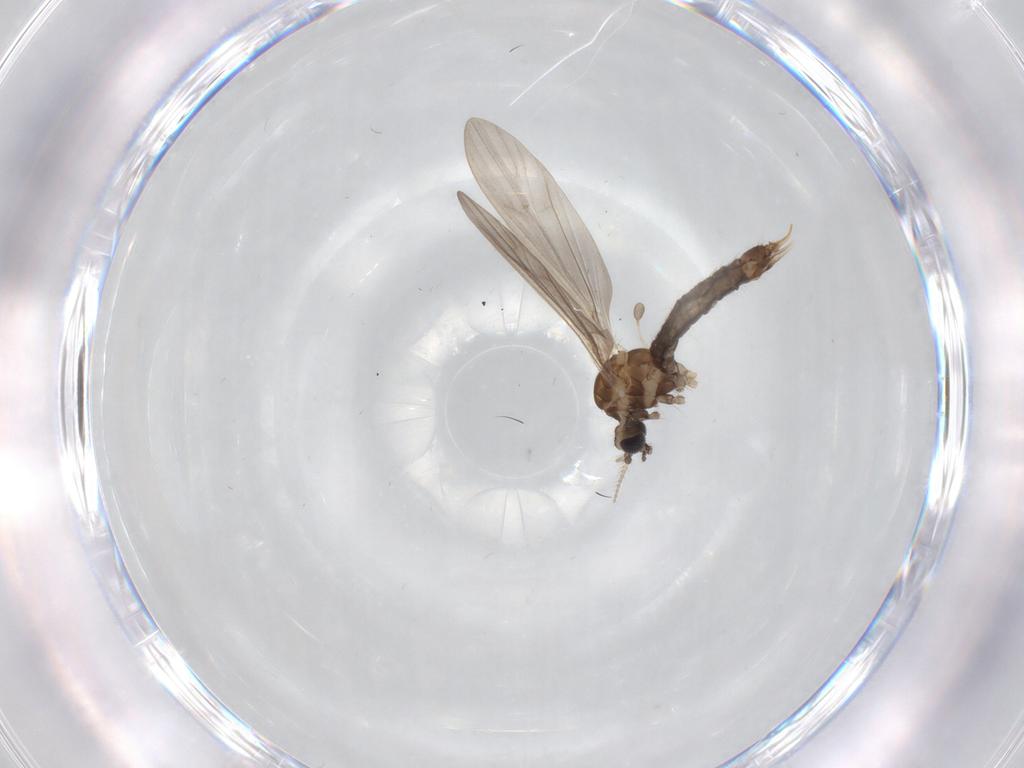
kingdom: Animalia
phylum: Arthropoda
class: Insecta
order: Diptera
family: Limoniidae
